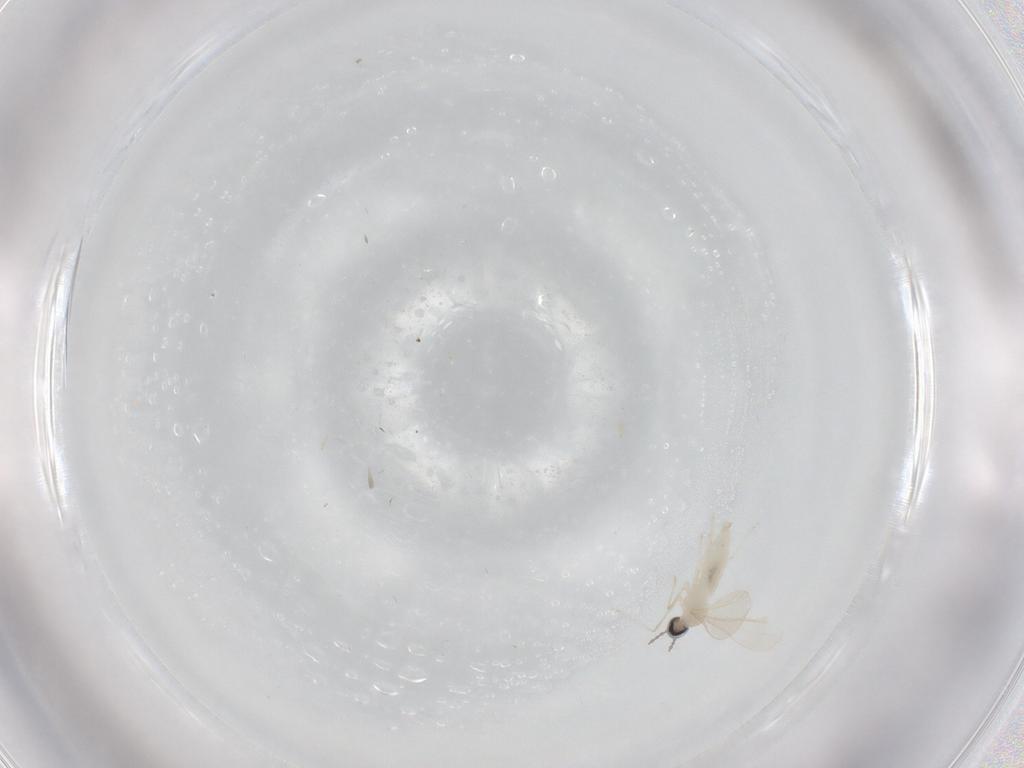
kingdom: Animalia
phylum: Arthropoda
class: Insecta
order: Diptera
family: Cecidomyiidae
